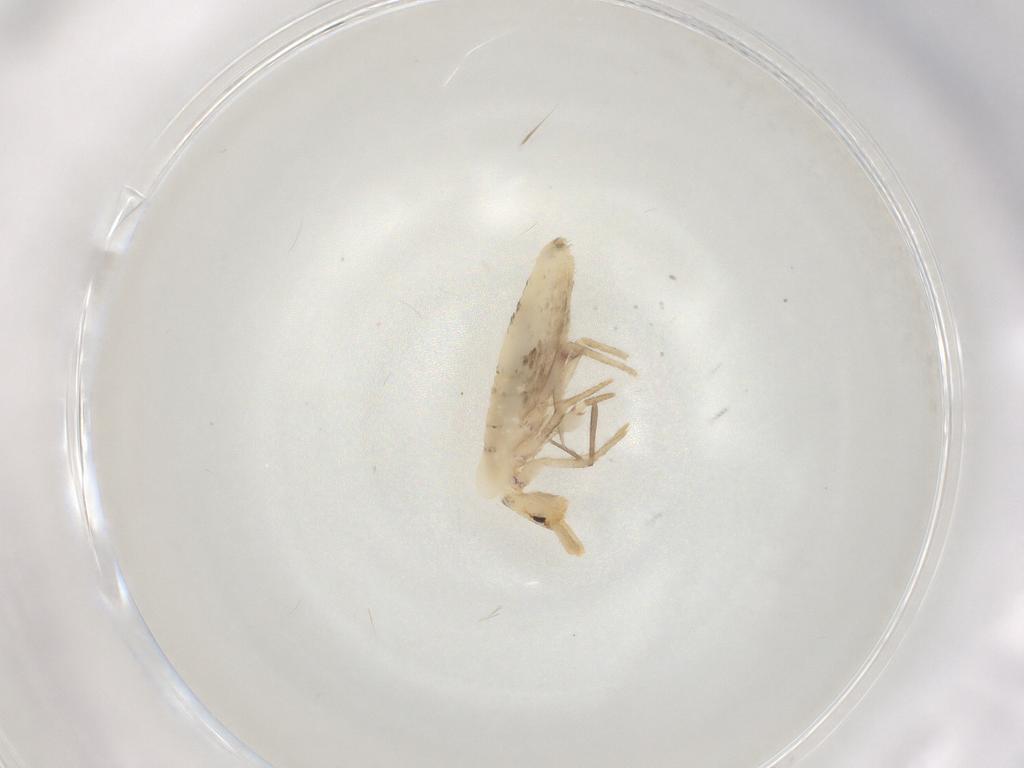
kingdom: Animalia
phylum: Arthropoda
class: Collembola
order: Poduromorpha
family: Hypogastruridae
